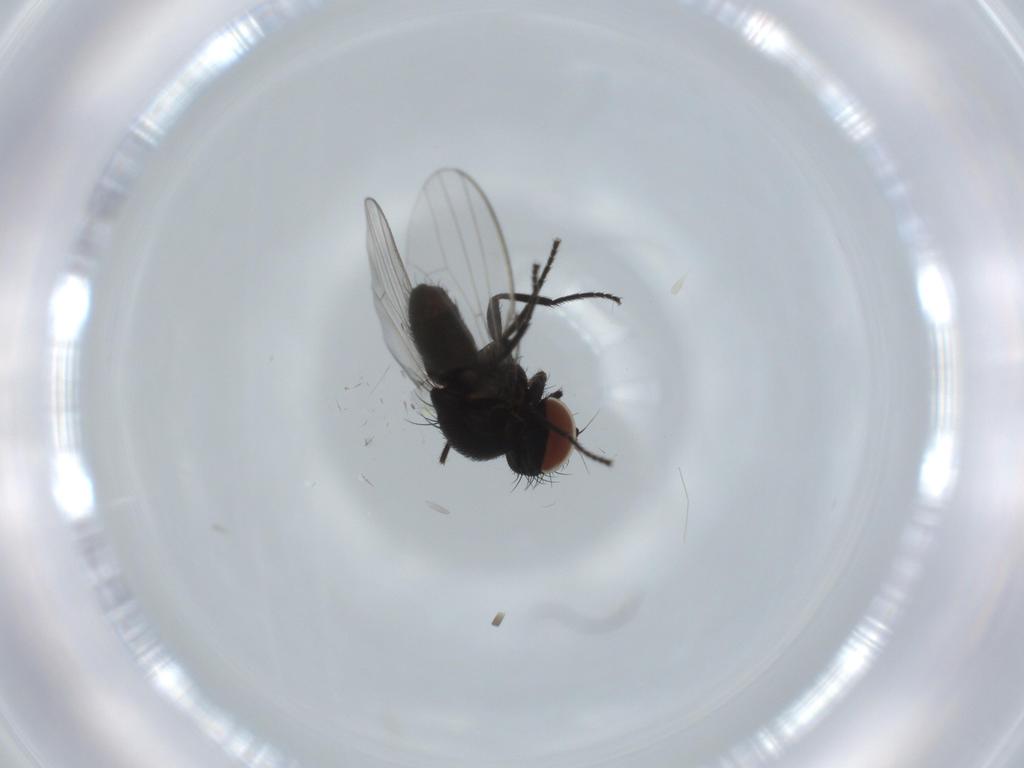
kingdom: Animalia
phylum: Arthropoda
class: Insecta
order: Diptera
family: Milichiidae
